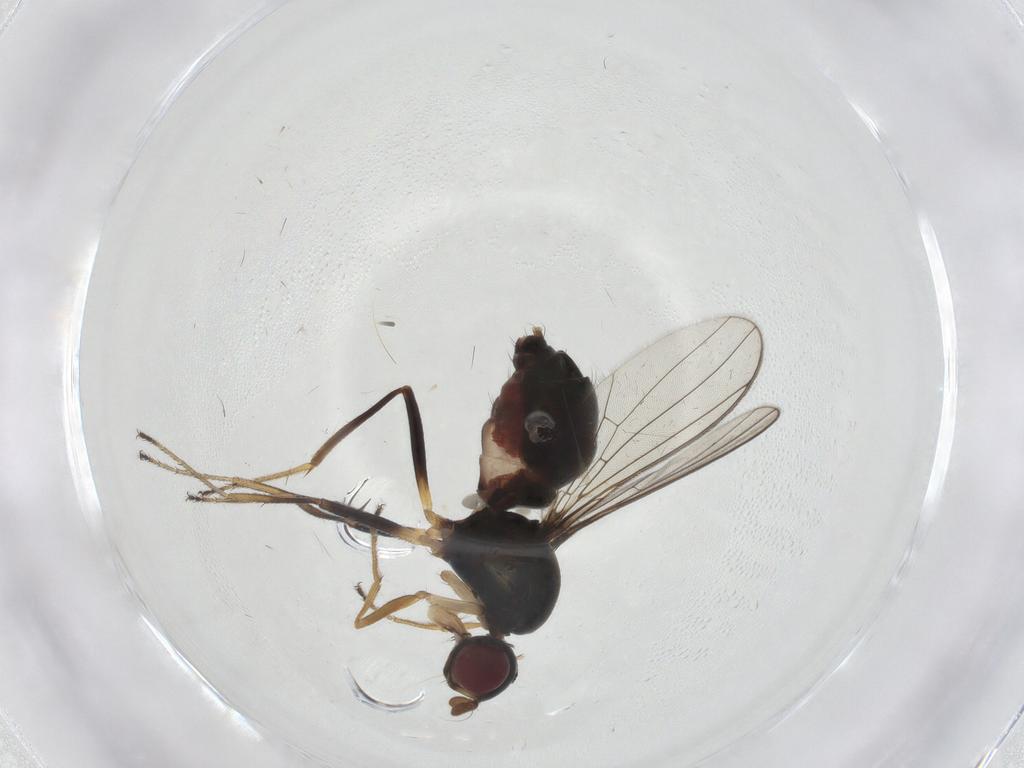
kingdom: Animalia
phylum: Arthropoda
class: Insecta
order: Diptera
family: Sepsidae
